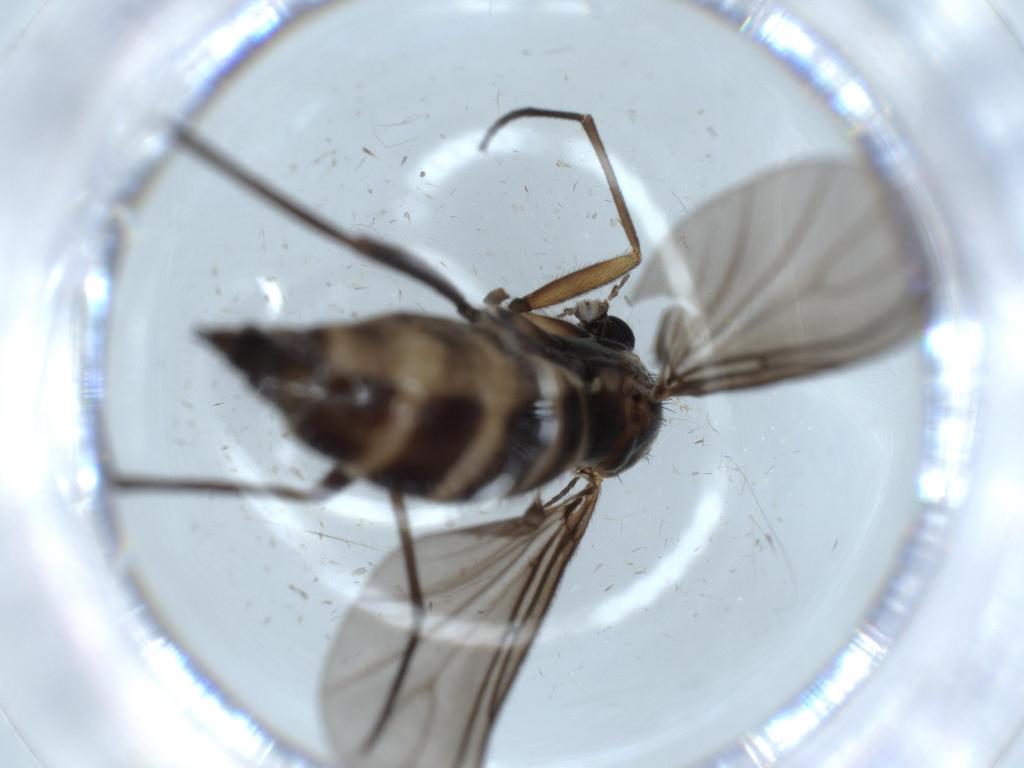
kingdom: Animalia
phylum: Arthropoda
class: Insecta
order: Diptera
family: Sciaridae
